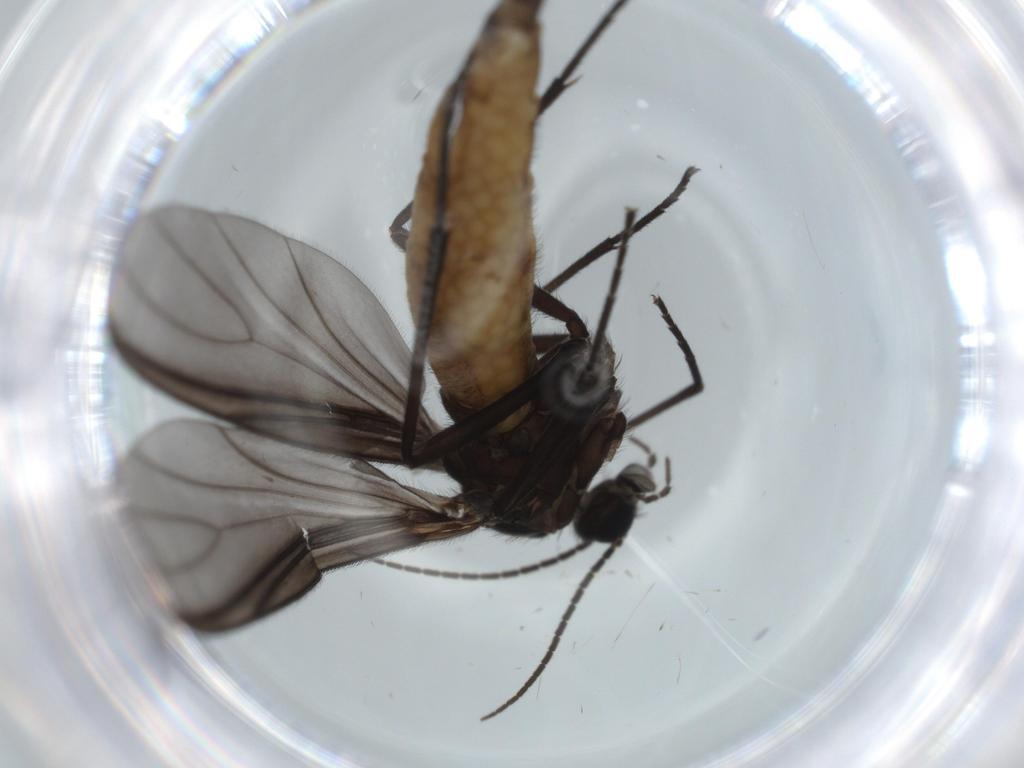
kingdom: Animalia
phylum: Arthropoda
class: Insecta
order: Diptera
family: Sciaridae
